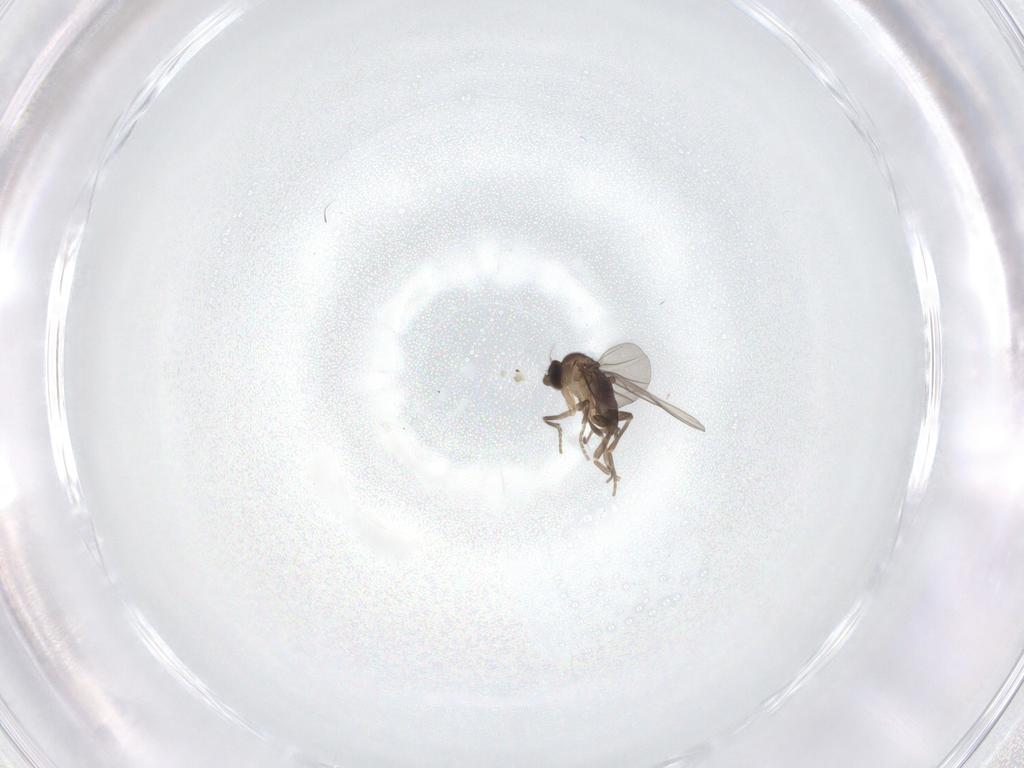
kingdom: Animalia
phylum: Arthropoda
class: Insecta
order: Diptera
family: Phoridae
